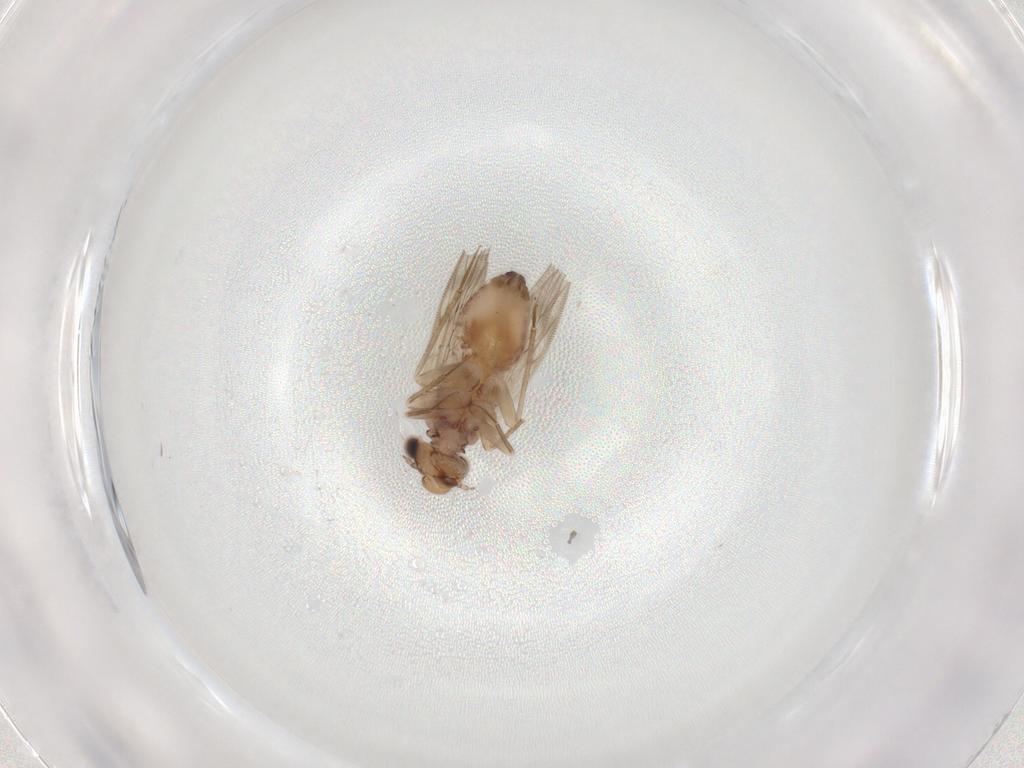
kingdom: Animalia
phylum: Arthropoda
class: Insecta
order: Psocodea
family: Lepidopsocidae
